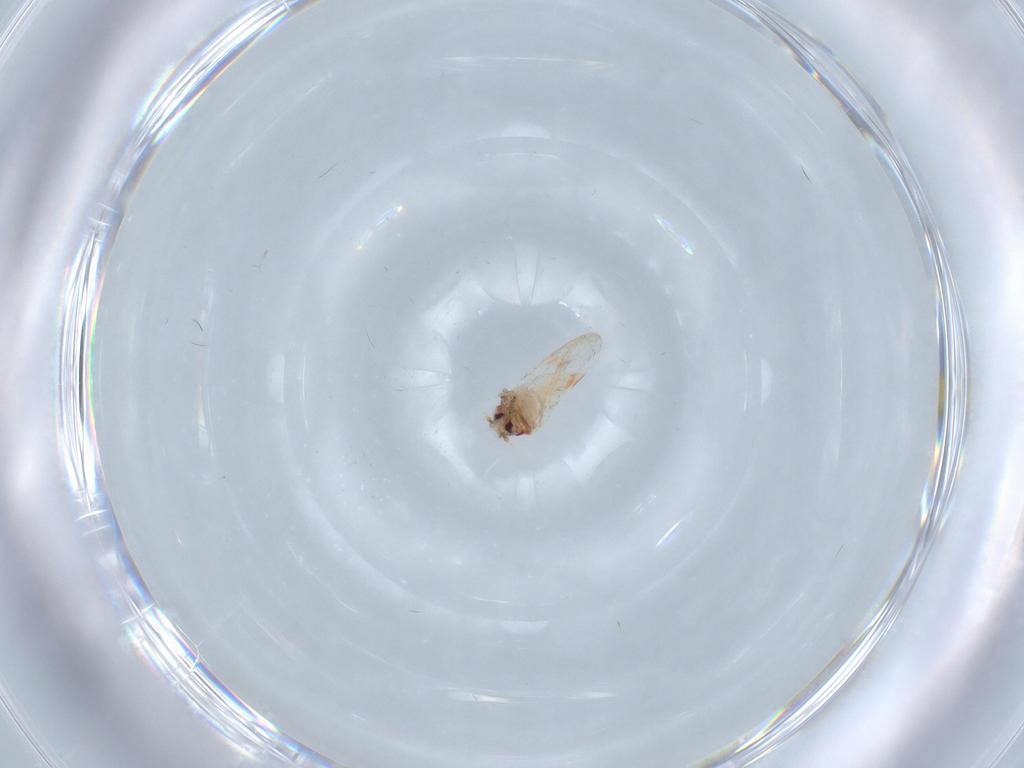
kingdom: Animalia
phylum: Arthropoda
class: Insecta
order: Hemiptera
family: Aleyrodidae
